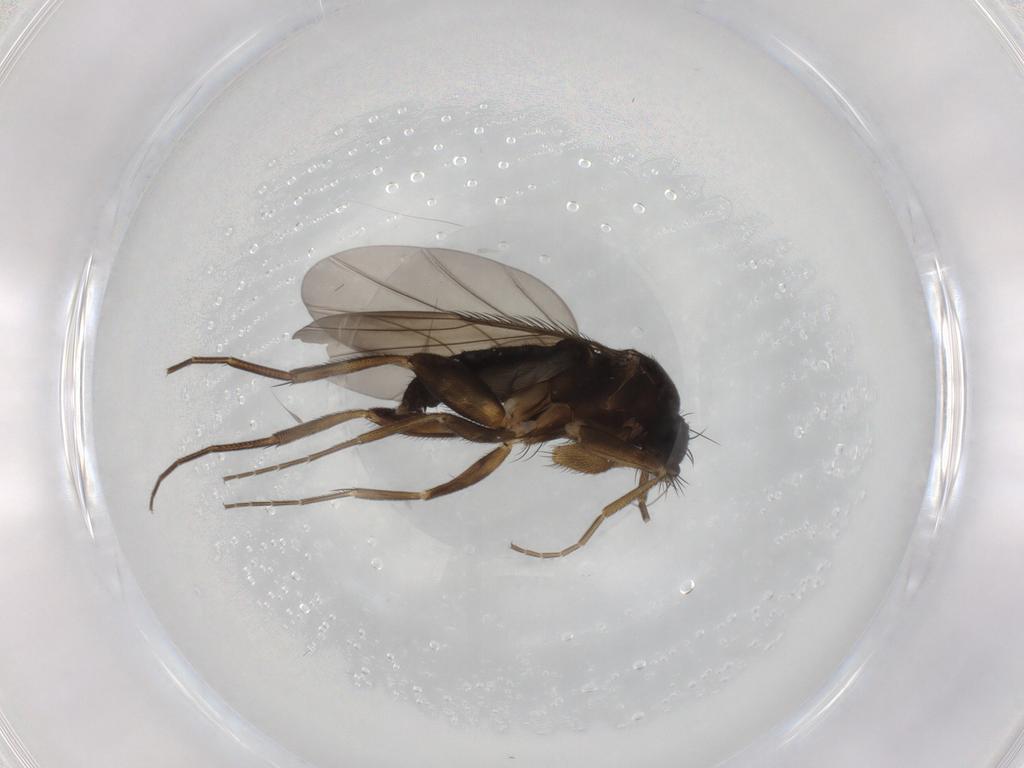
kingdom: Animalia
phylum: Arthropoda
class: Insecta
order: Diptera
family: Phoridae
